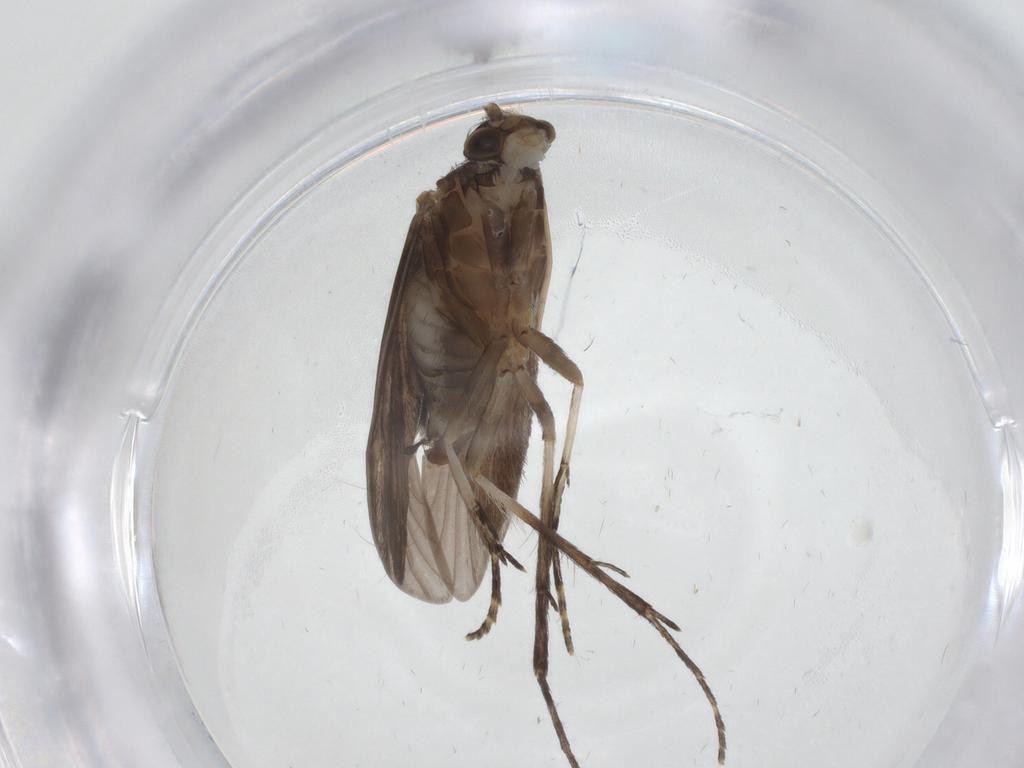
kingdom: Animalia
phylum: Arthropoda
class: Insecta
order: Trichoptera
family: Xiphocentronidae
